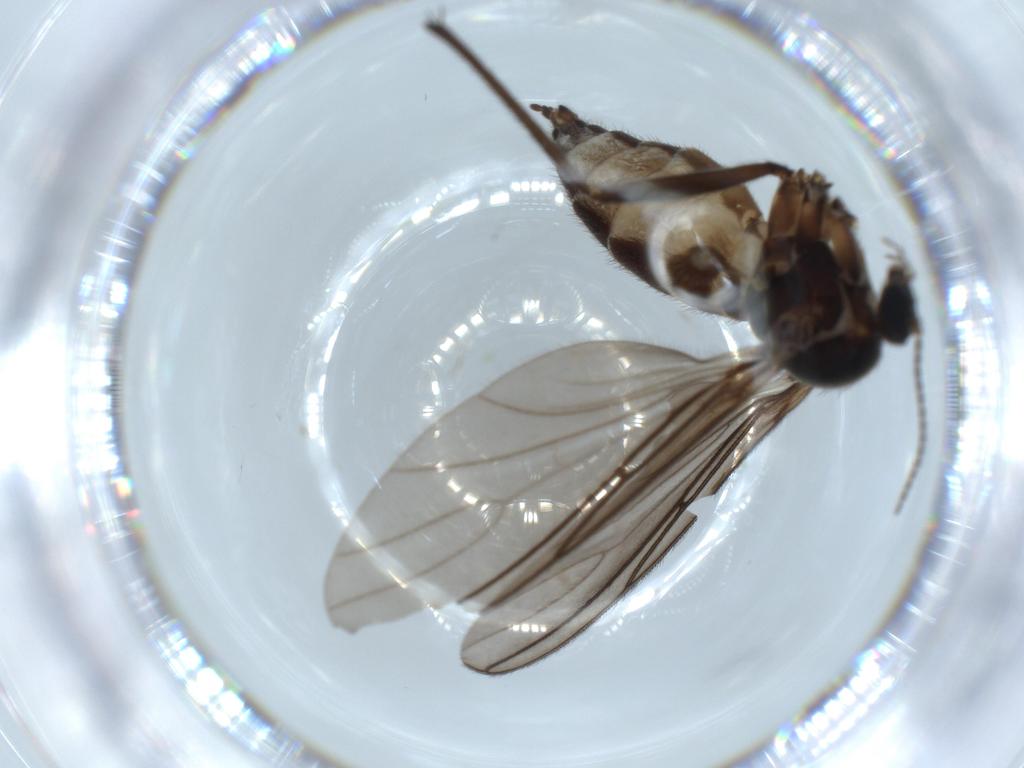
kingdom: Animalia
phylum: Arthropoda
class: Insecta
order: Diptera
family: Sciaridae
